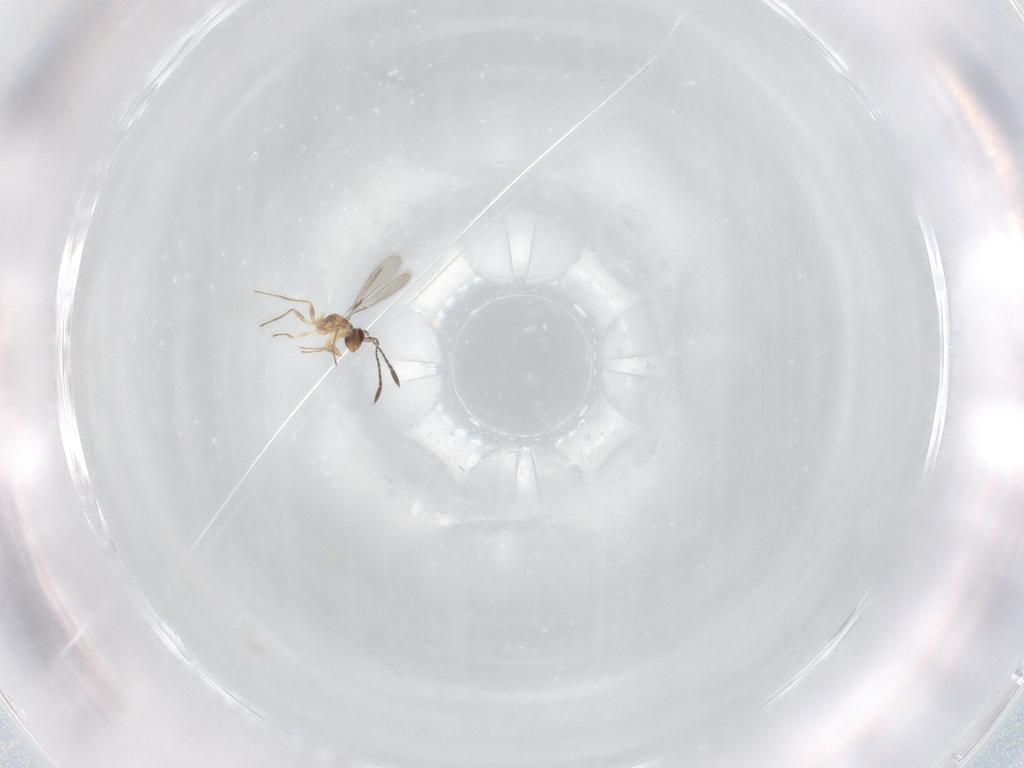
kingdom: Animalia
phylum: Arthropoda
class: Insecta
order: Hymenoptera
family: Mymaridae
